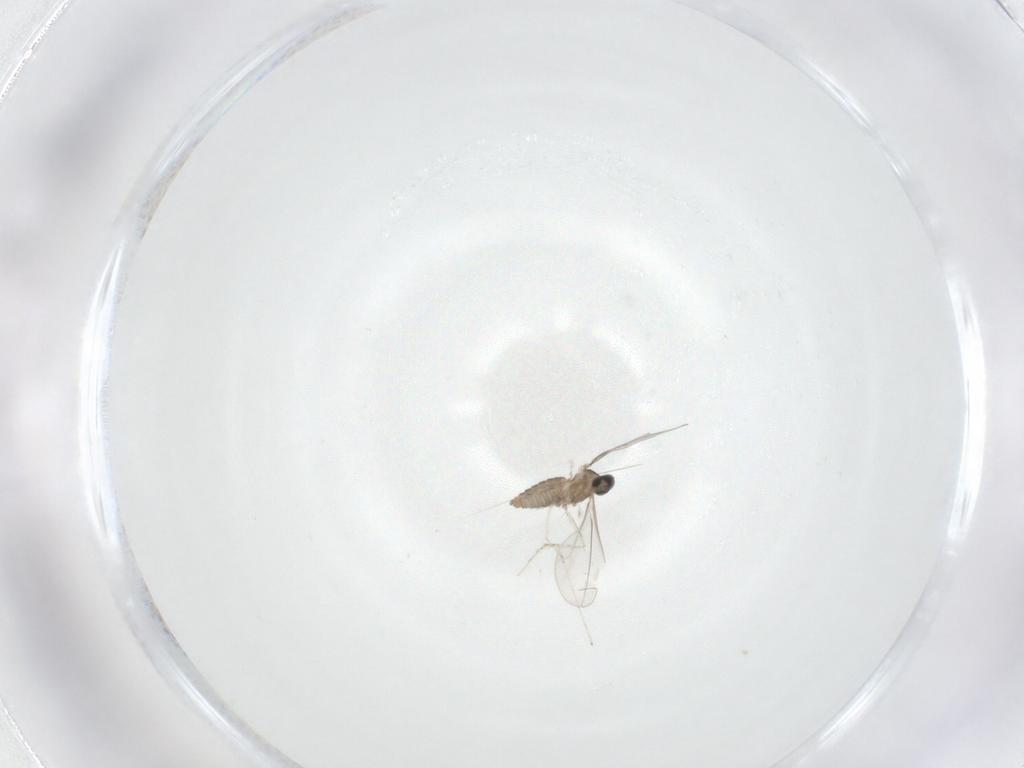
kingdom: Animalia
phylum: Arthropoda
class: Insecta
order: Diptera
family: Cecidomyiidae
